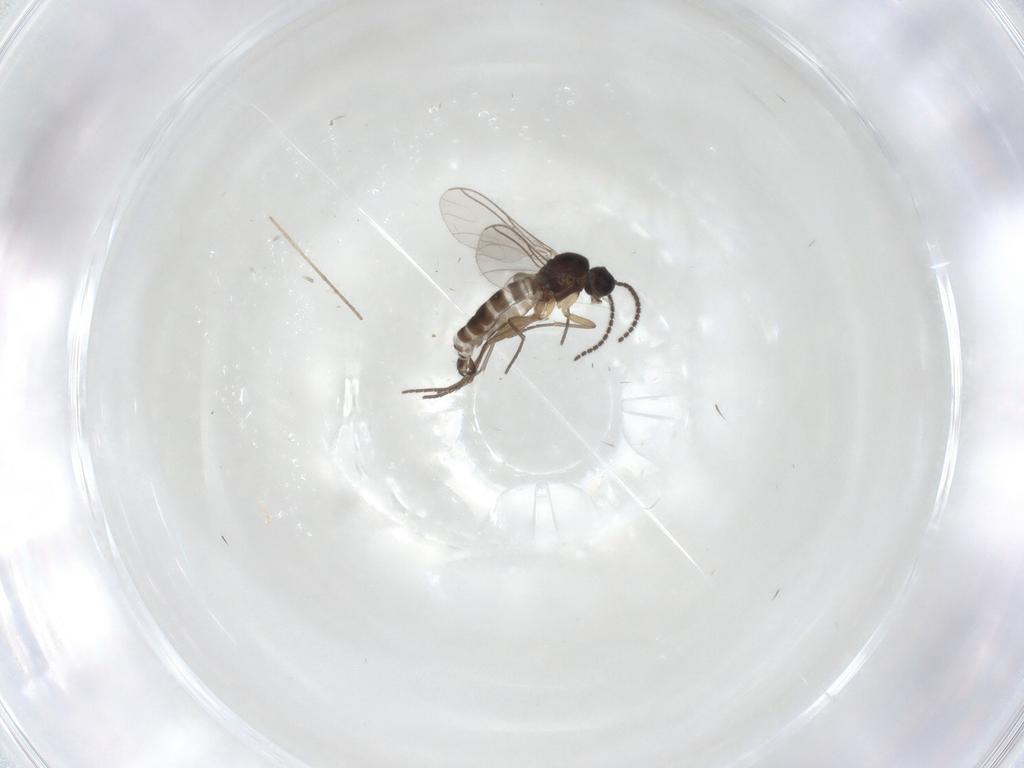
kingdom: Animalia
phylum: Arthropoda
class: Insecta
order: Diptera
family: Sciaridae
